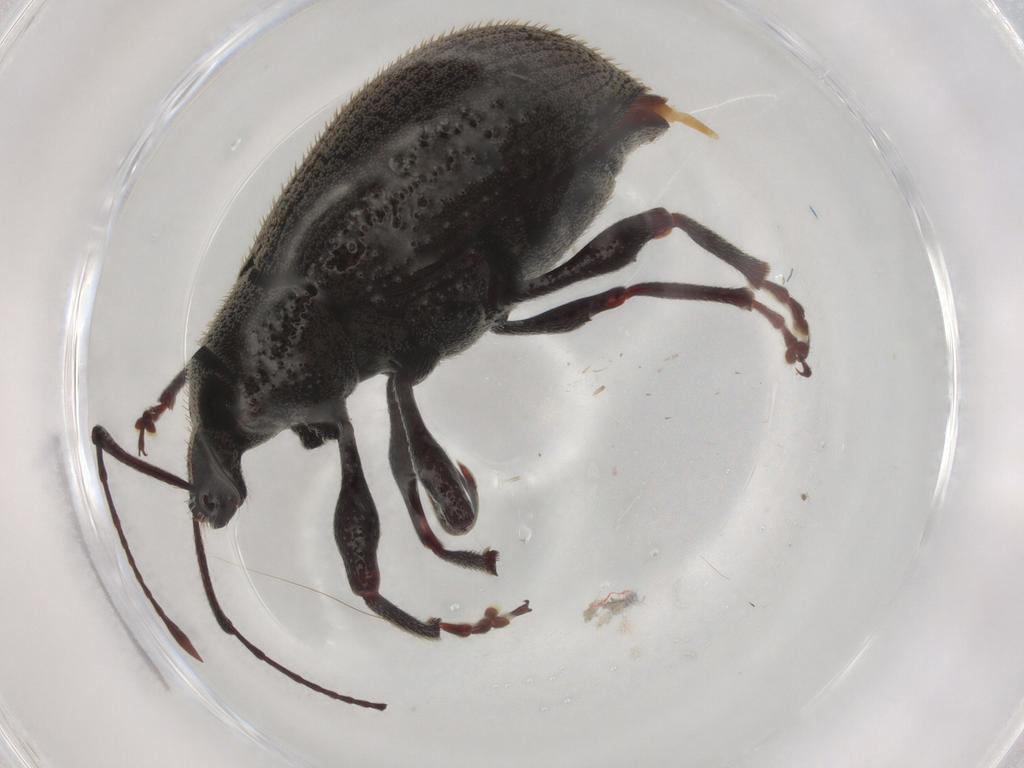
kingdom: Animalia
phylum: Arthropoda
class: Insecta
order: Coleoptera
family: Curculionidae
